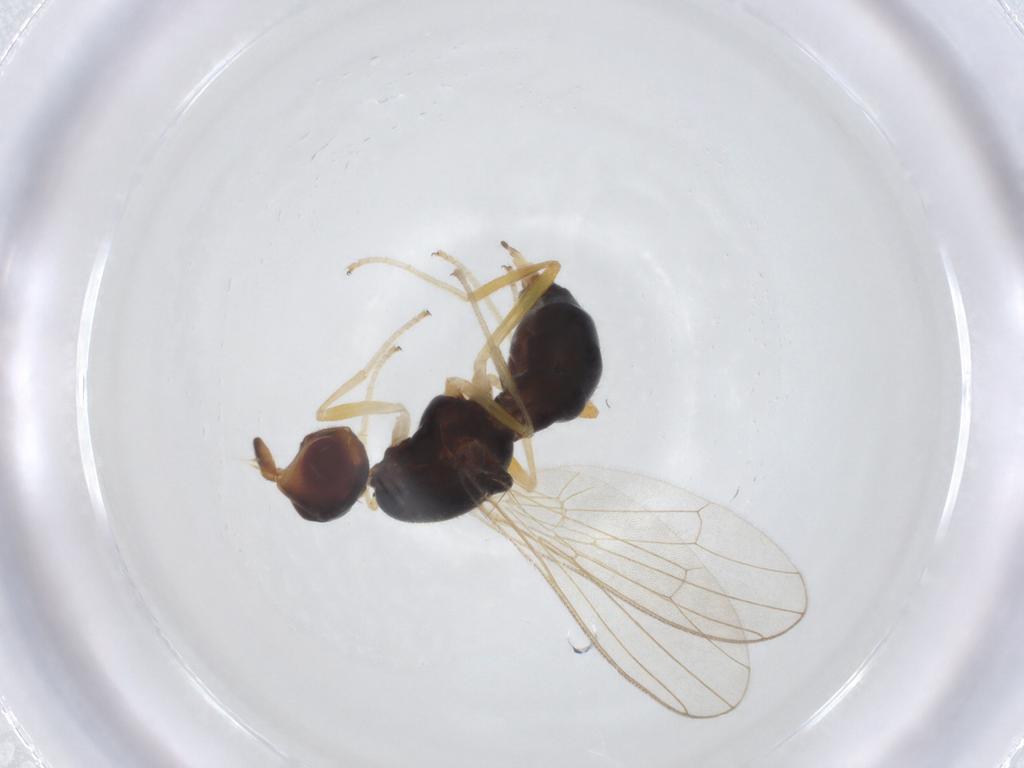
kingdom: Animalia
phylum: Arthropoda
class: Insecta
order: Diptera
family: Psilidae
